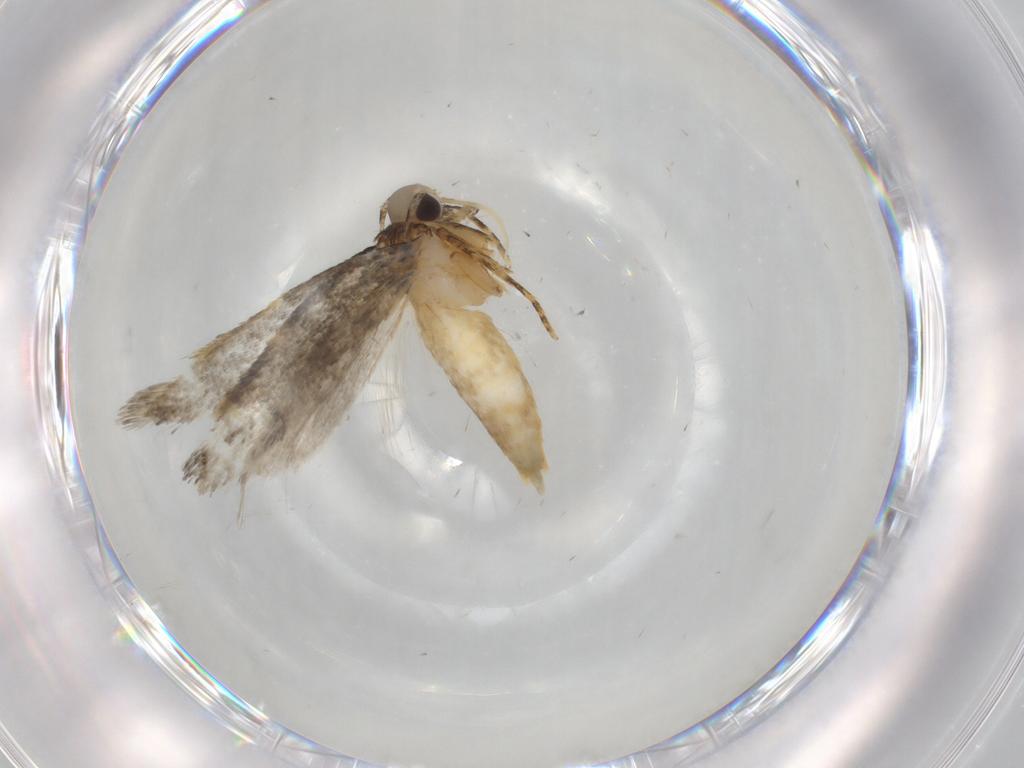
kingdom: Animalia
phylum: Arthropoda
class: Insecta
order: Lepidoptera
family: Autostichidae
